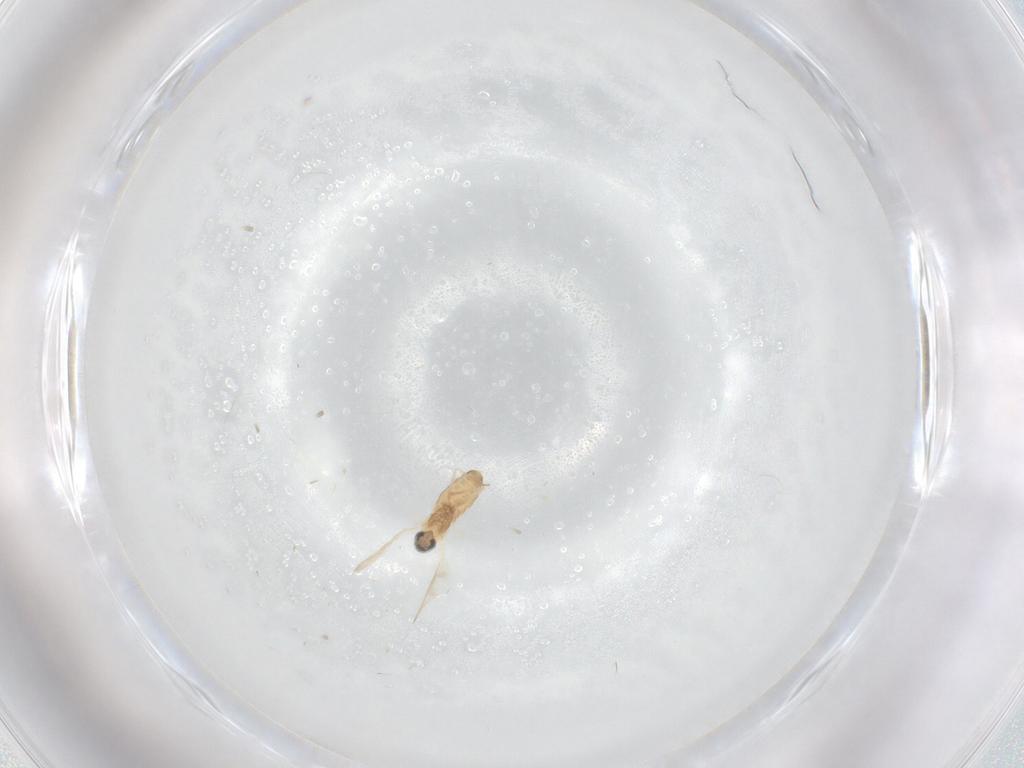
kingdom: Animalia
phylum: Arthropoda
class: Insecta
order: Diptera
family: Cecidomyiidae
